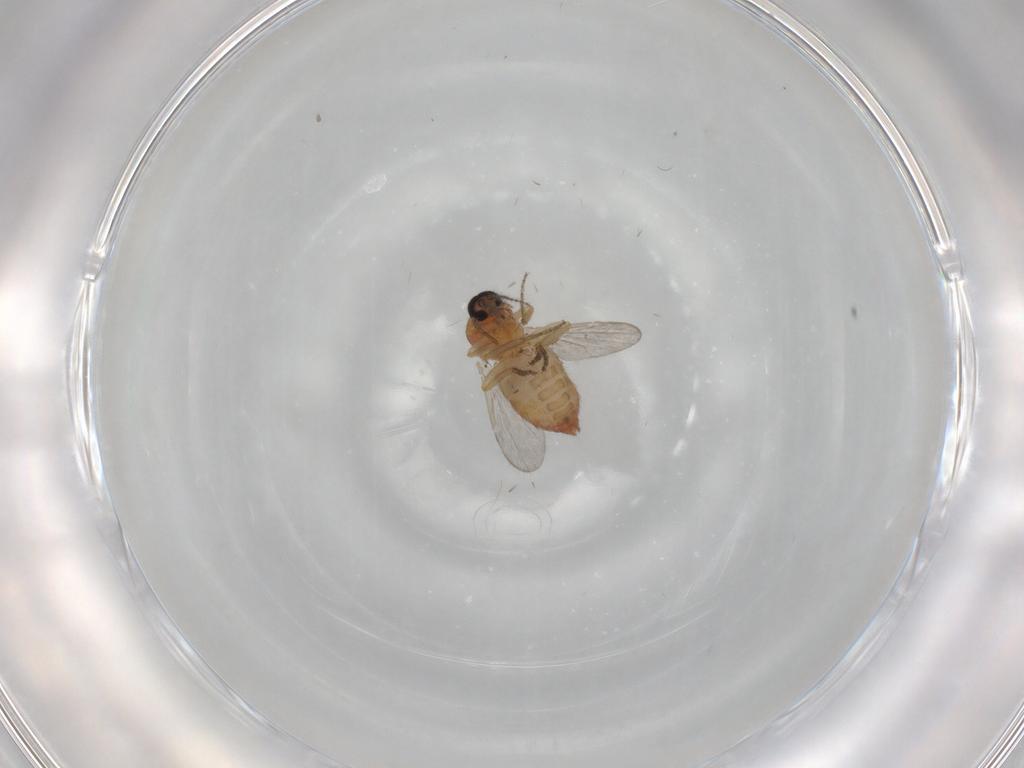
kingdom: Animalia
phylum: Arthropoda
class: Insecta
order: Diptera
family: Ceratopogonidae
